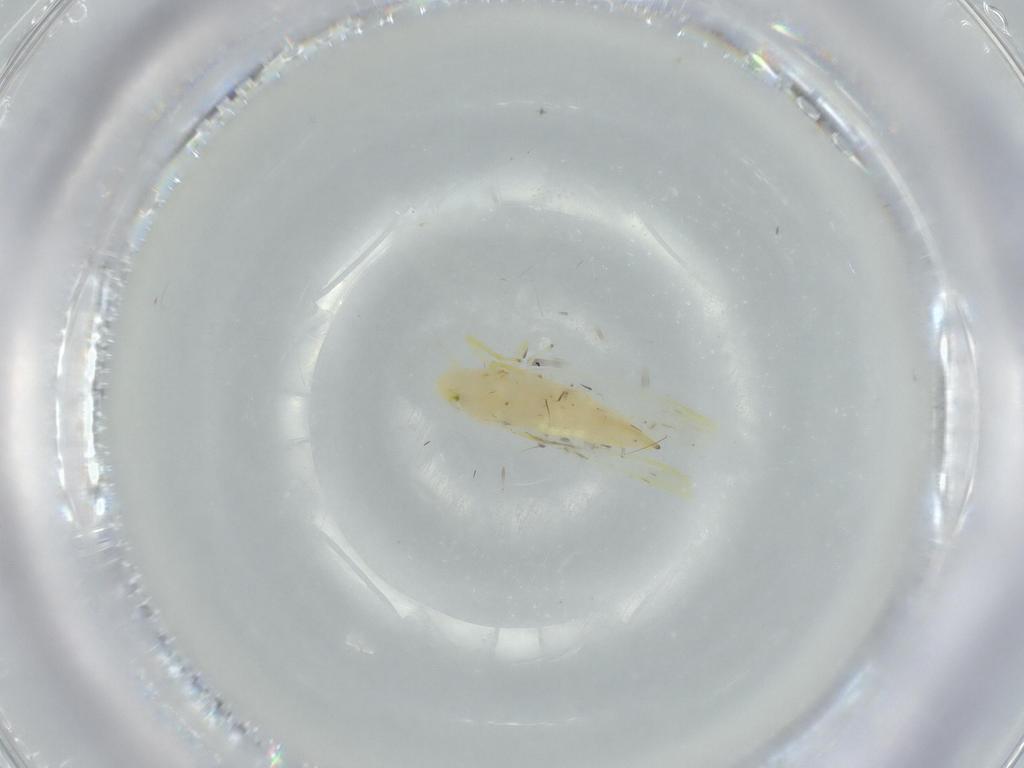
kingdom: Animalia
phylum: Arthropoda
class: Insecta
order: Hemiptera
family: Cicadellidae
